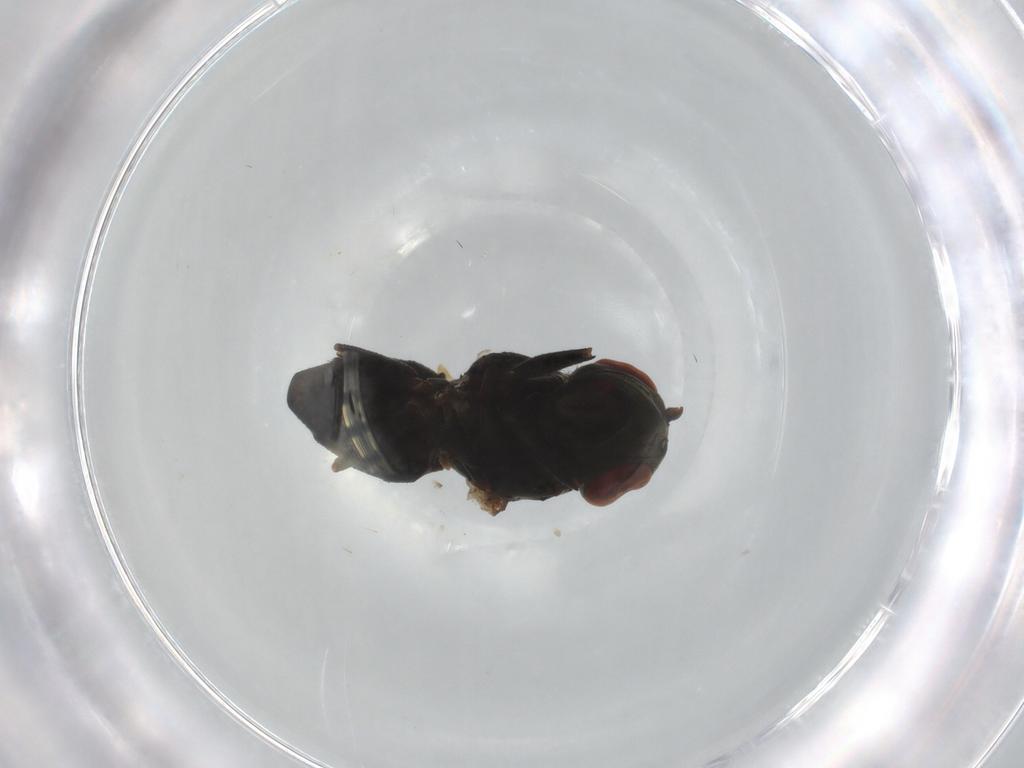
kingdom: Animalia
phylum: Arthropoda
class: Insecta
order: Diptera
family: Ephydridae
